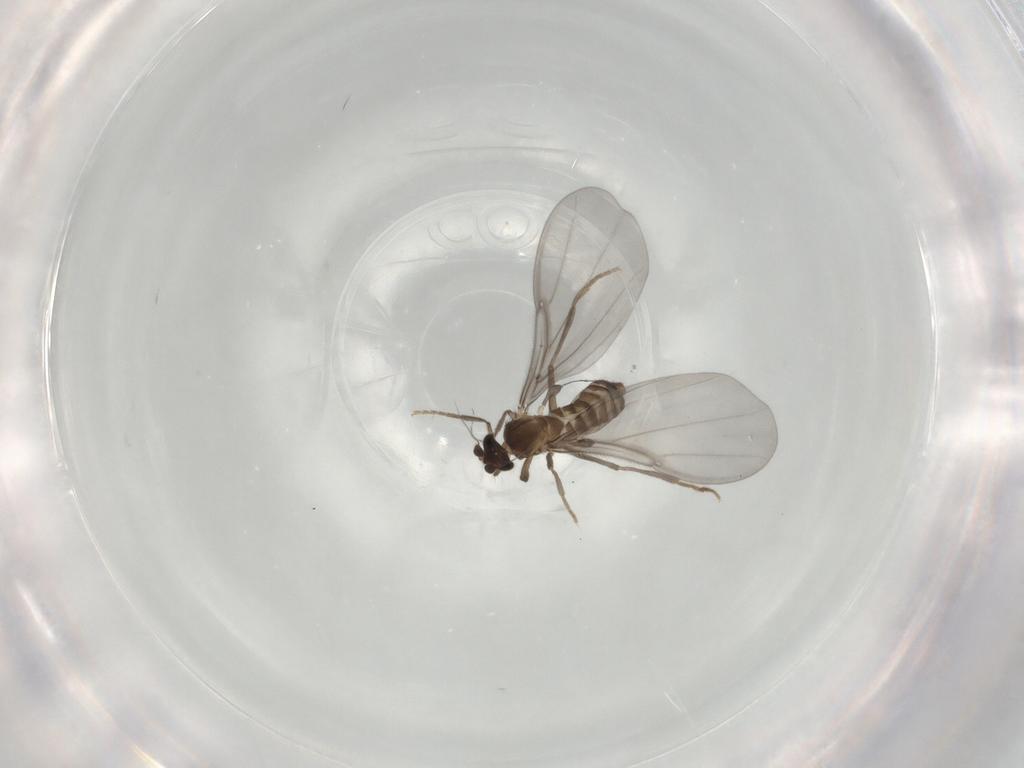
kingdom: Animalia
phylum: Arthropoda
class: Insecta
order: Diptera
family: Phoridae
